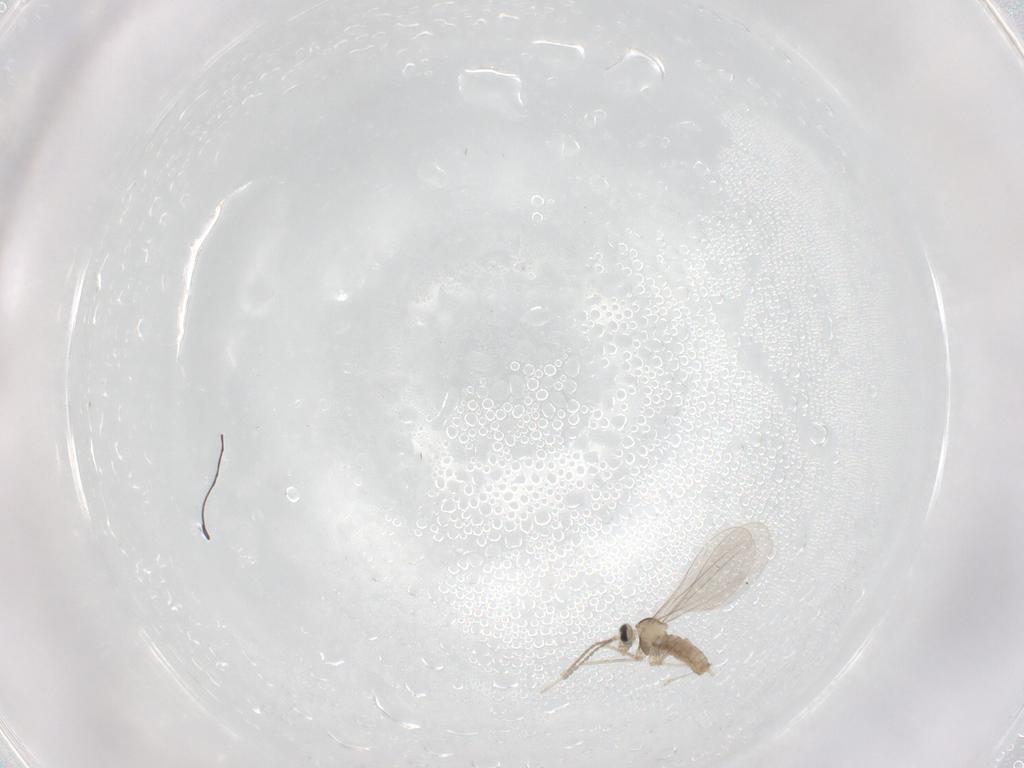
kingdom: Animalia
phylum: Arthropoda
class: Insecta
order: Diptera
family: Cecidomyiidae
